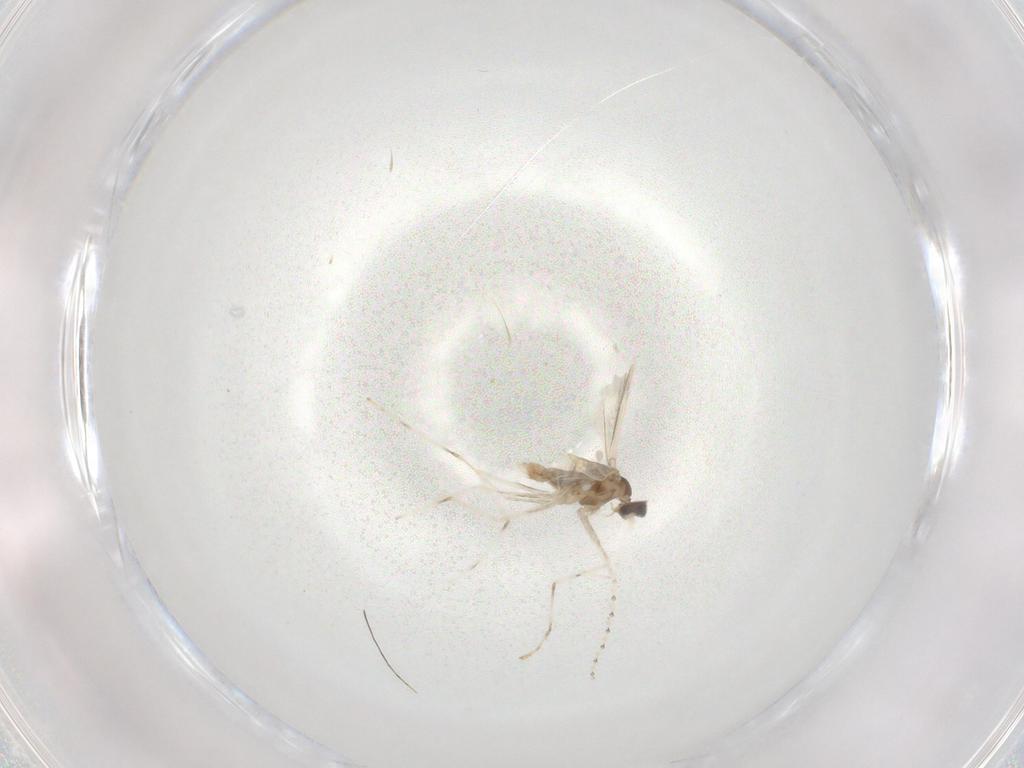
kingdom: Animalia
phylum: Arthropoda
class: Insecta
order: Diptera
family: Cecidomyiidae
